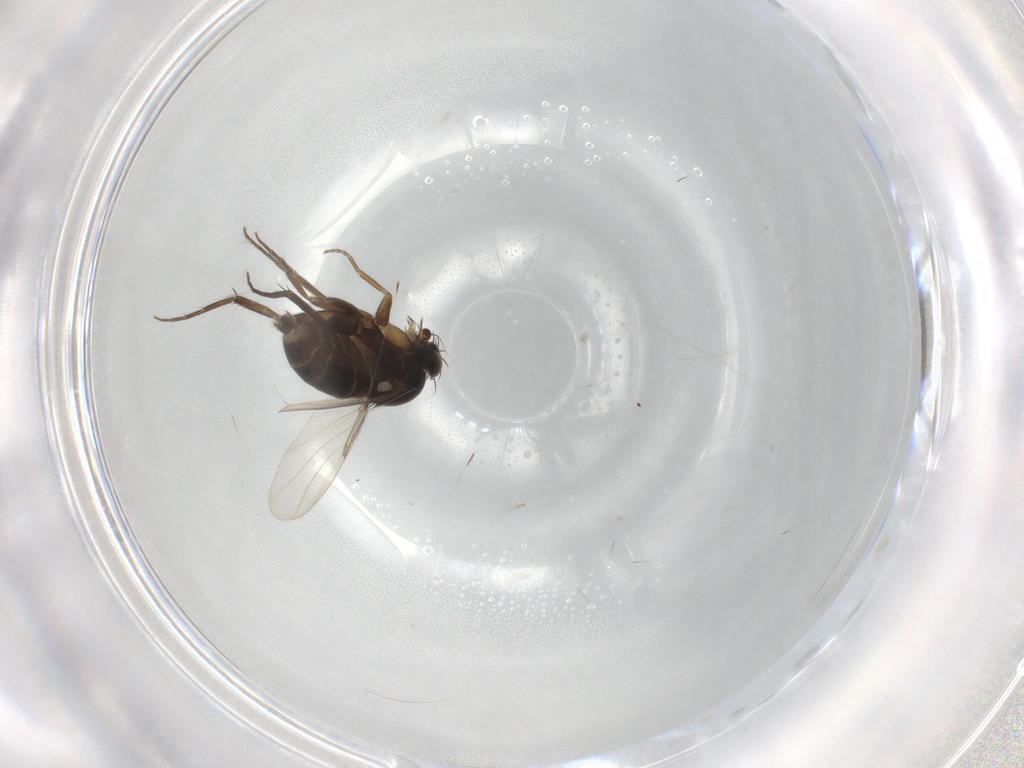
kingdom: Animalia
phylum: Arthropoda
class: Insecta
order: Diptera
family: Phoridae
